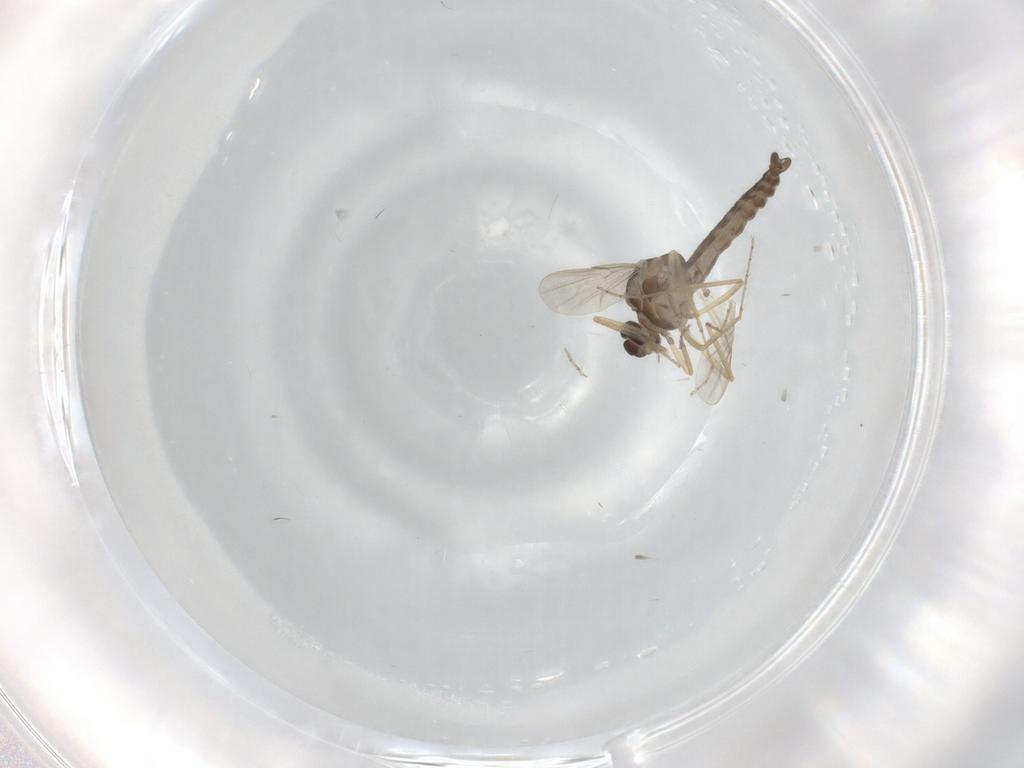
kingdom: Animalia
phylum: Arthropoda
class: Insecta
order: Diptera
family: Ceratopogonidae
